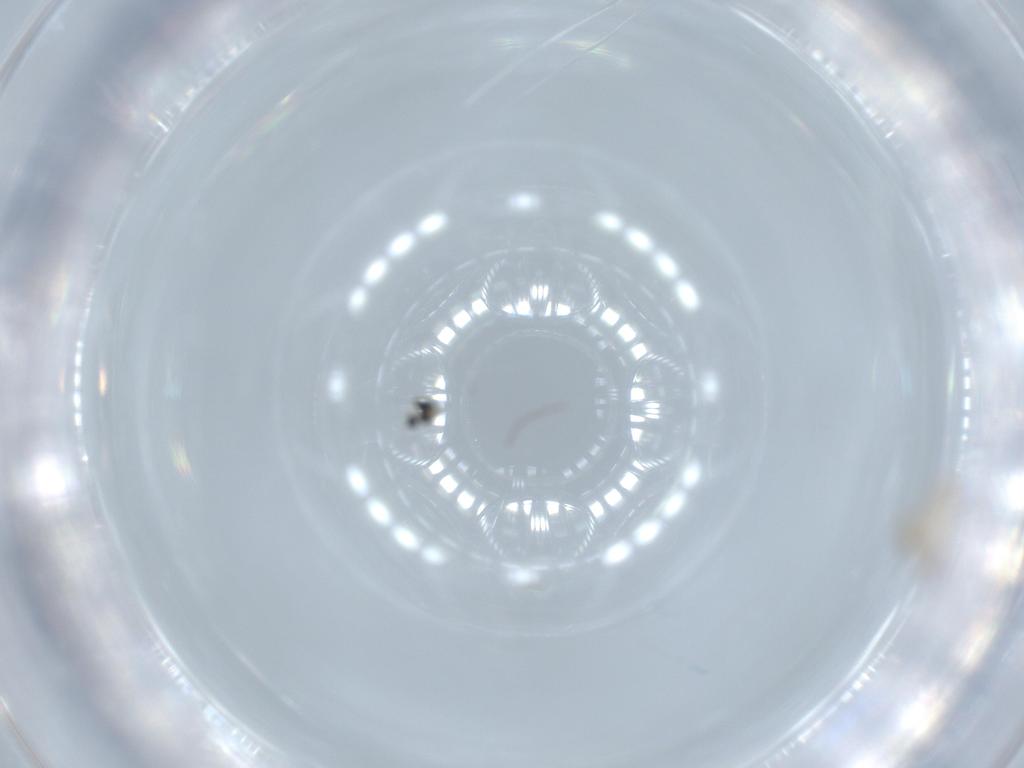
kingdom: Animalia
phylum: Arthropoda
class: Insecta
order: Diptera
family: Cecidomyiidae
